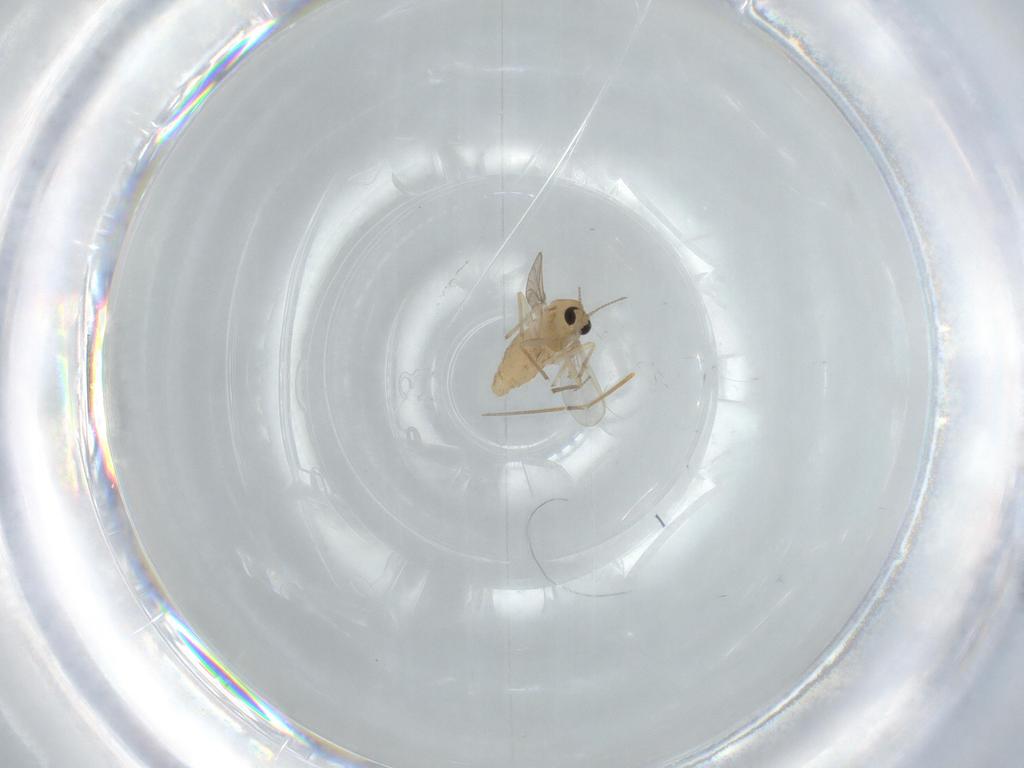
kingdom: Animalia
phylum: Arthropoda
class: Insecta
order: Diptera
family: Chironomidae
